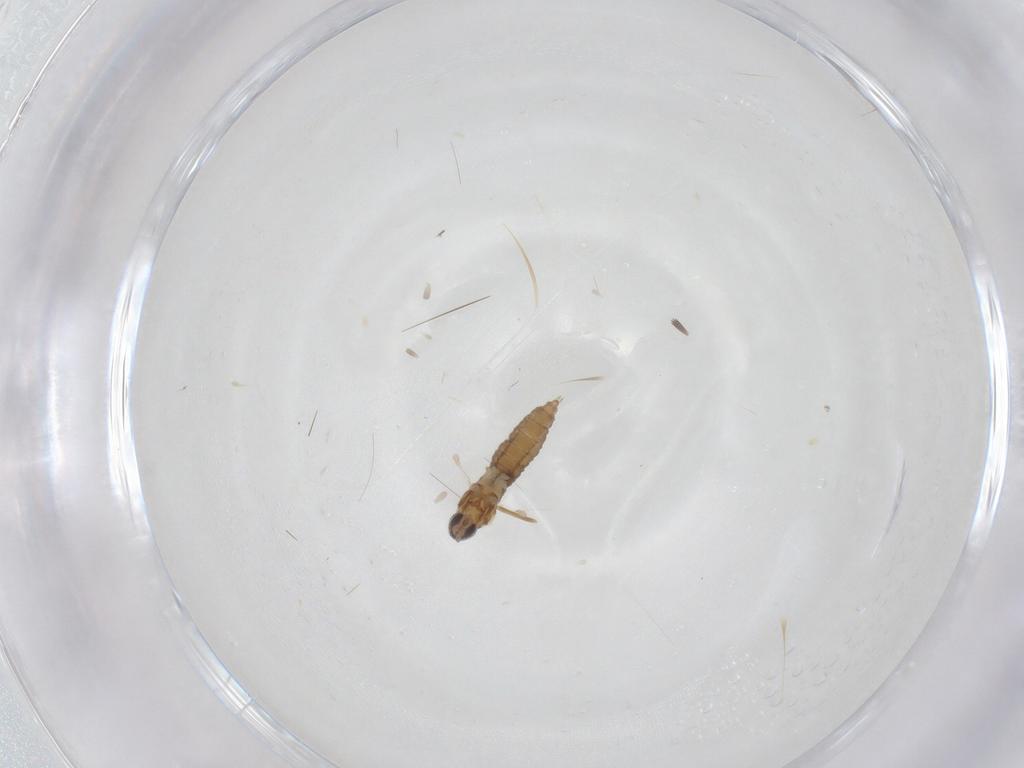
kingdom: Animalia
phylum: Arthropoda
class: Insecta
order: Diptera
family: Cecidomyiidae
